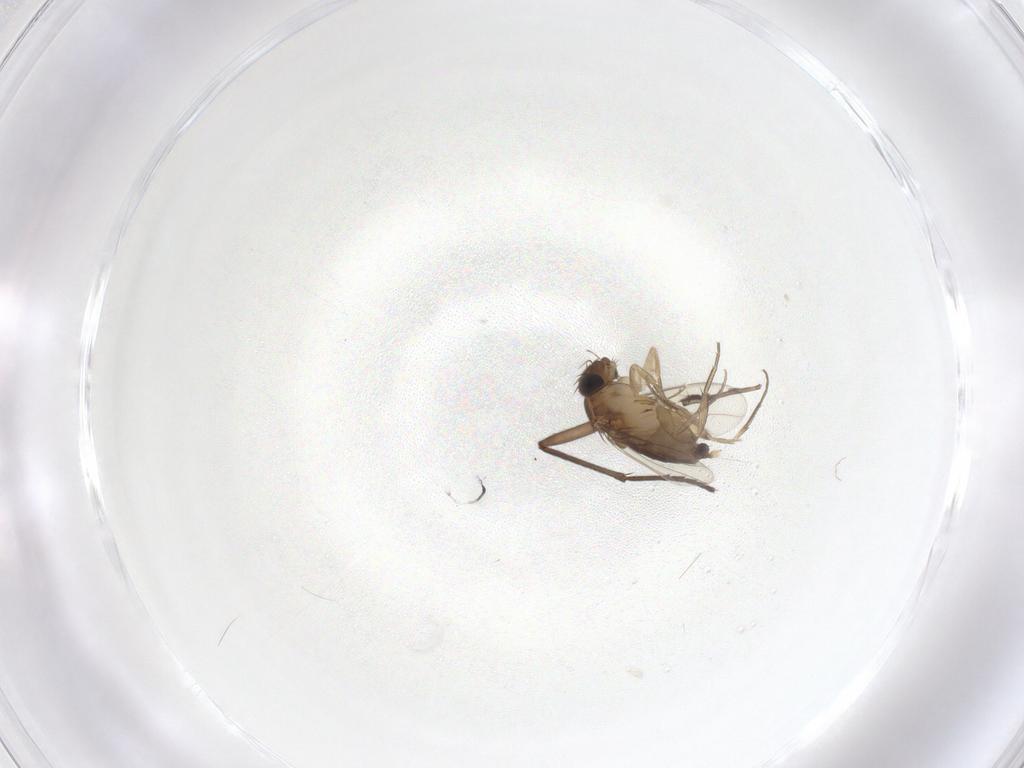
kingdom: Animalia
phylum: Arthropoda
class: Insecta
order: Diptera
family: Phoridae
